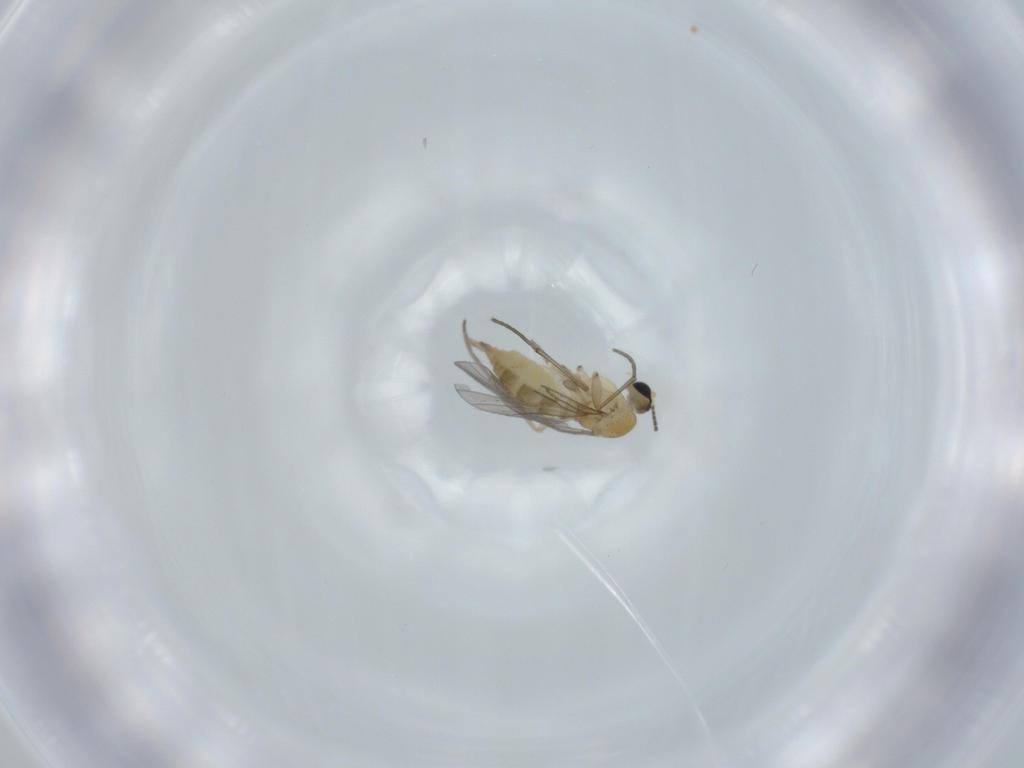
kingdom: Animalia
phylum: Arthropoda
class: Insecta
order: Diptera
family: Sciaridae
